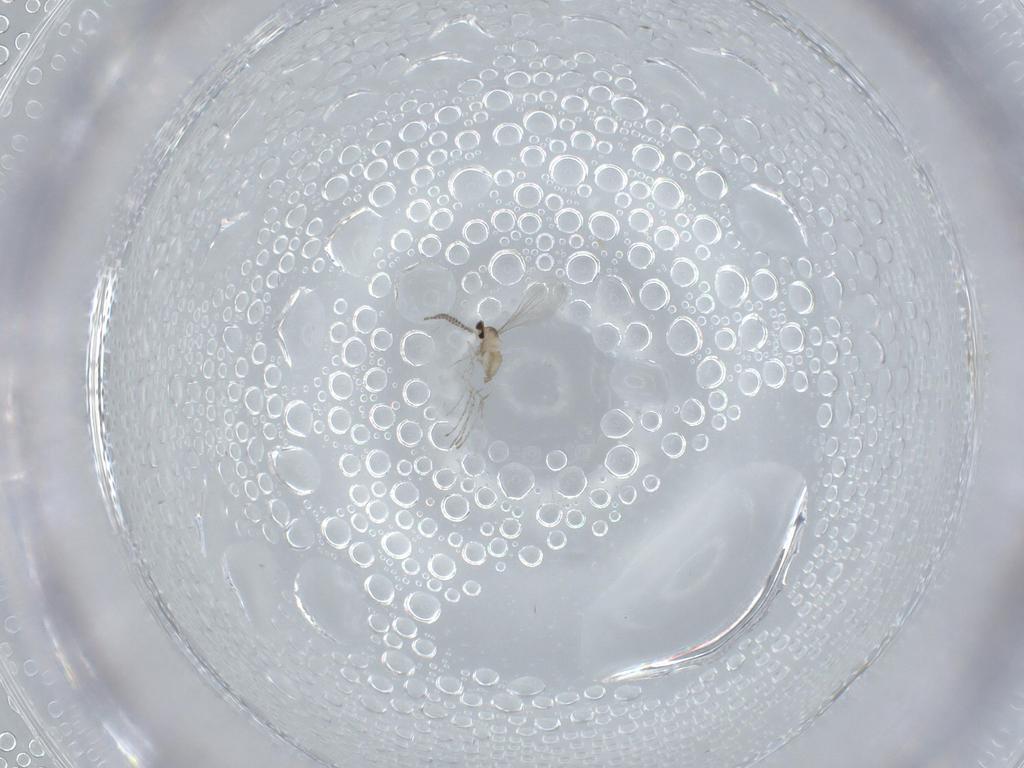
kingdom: Animalia
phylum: Arthropoda
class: Insecta
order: Diptera
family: Cecidomyiidae
